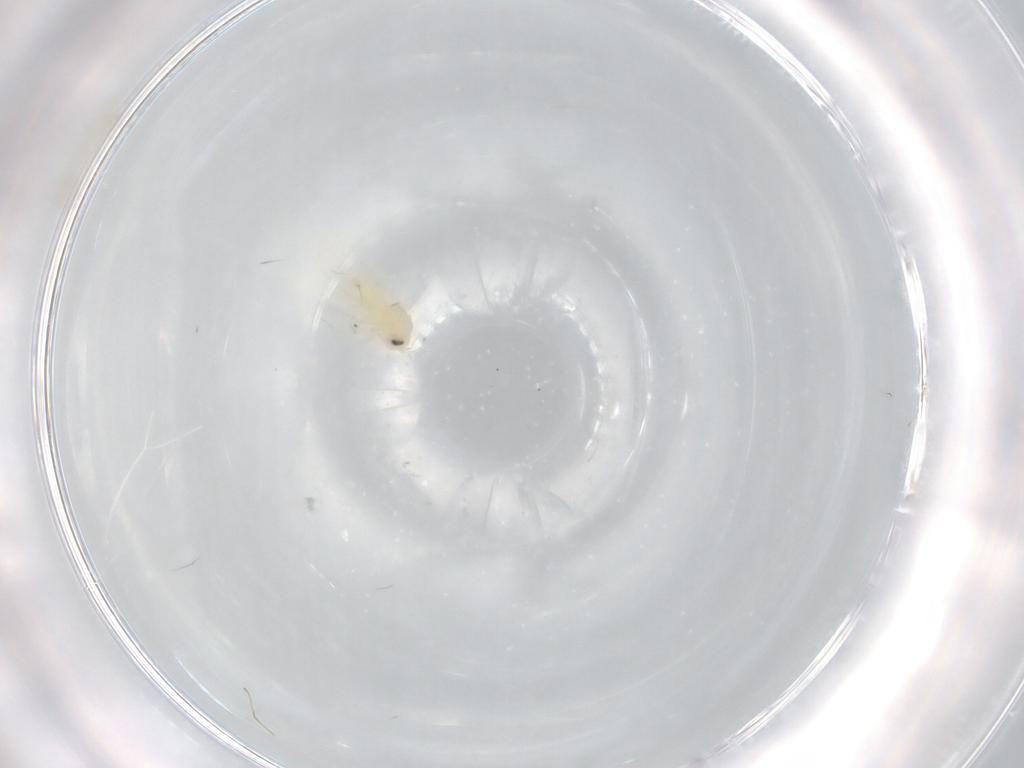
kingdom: Animalia
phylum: Arthropoda
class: Insecta
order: Hemiptera
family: Aleyrodidae
